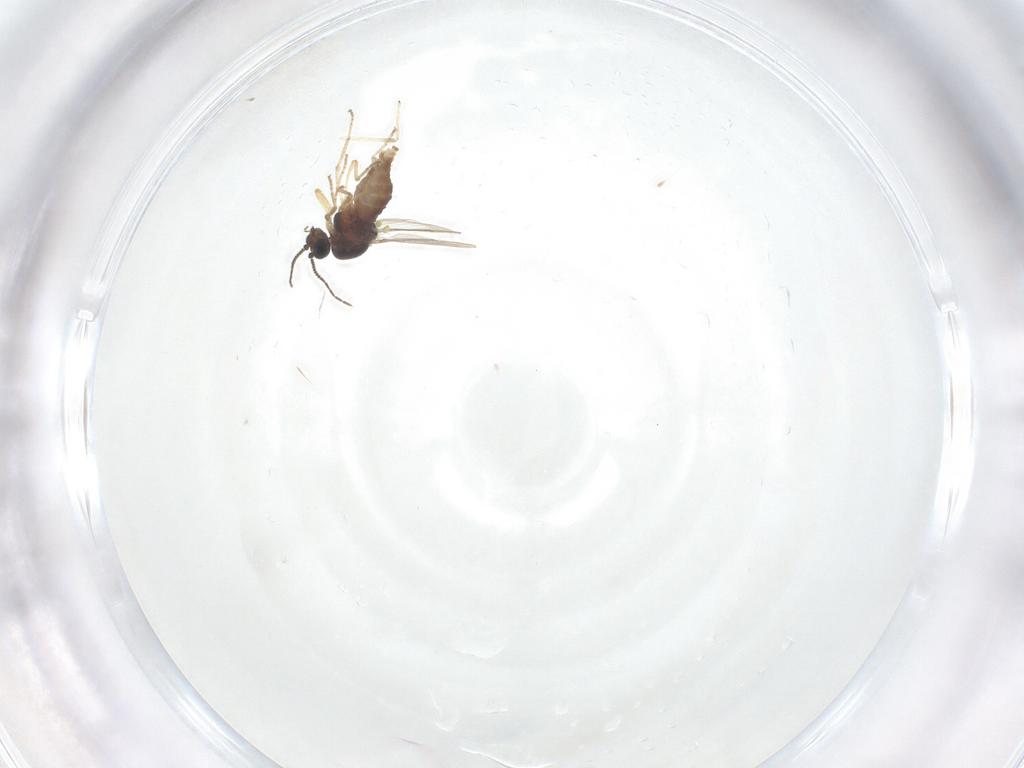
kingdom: Animalia
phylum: Arthropoda
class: Insecta
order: Diptera
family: Ceratopogonidae
